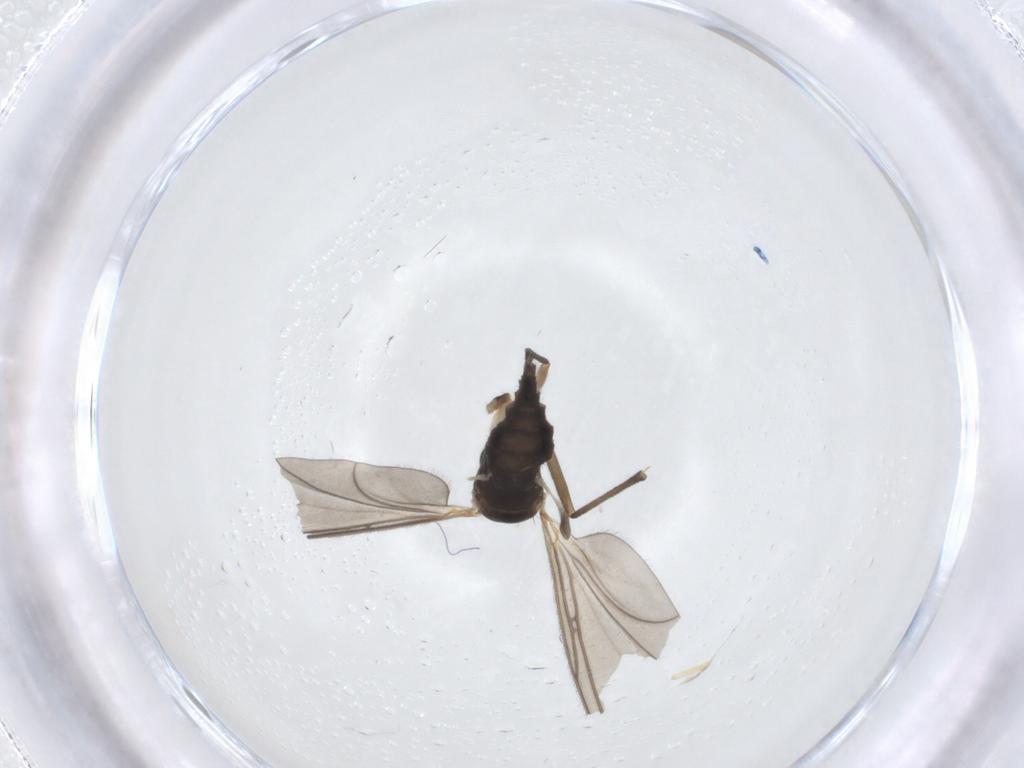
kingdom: Animalia
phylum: Arthropoda
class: Insecta
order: Diptera
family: Sciaridae
